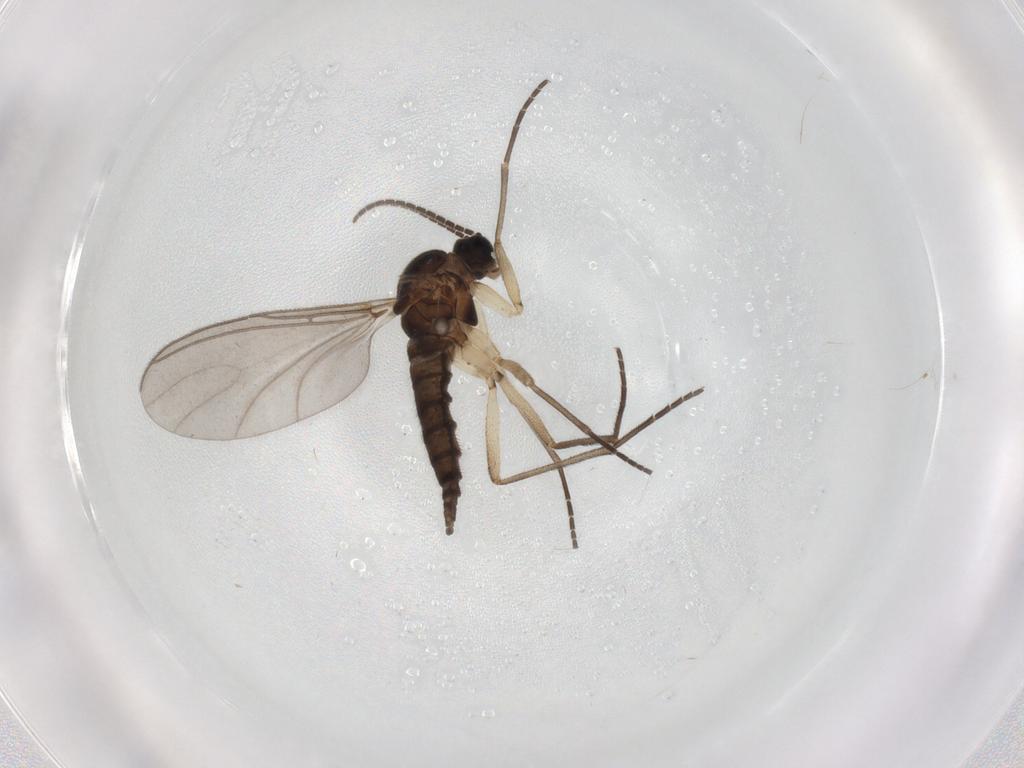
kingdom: Animalia
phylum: Arthropoda
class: Insecta
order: Diptera
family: Sciaridae
